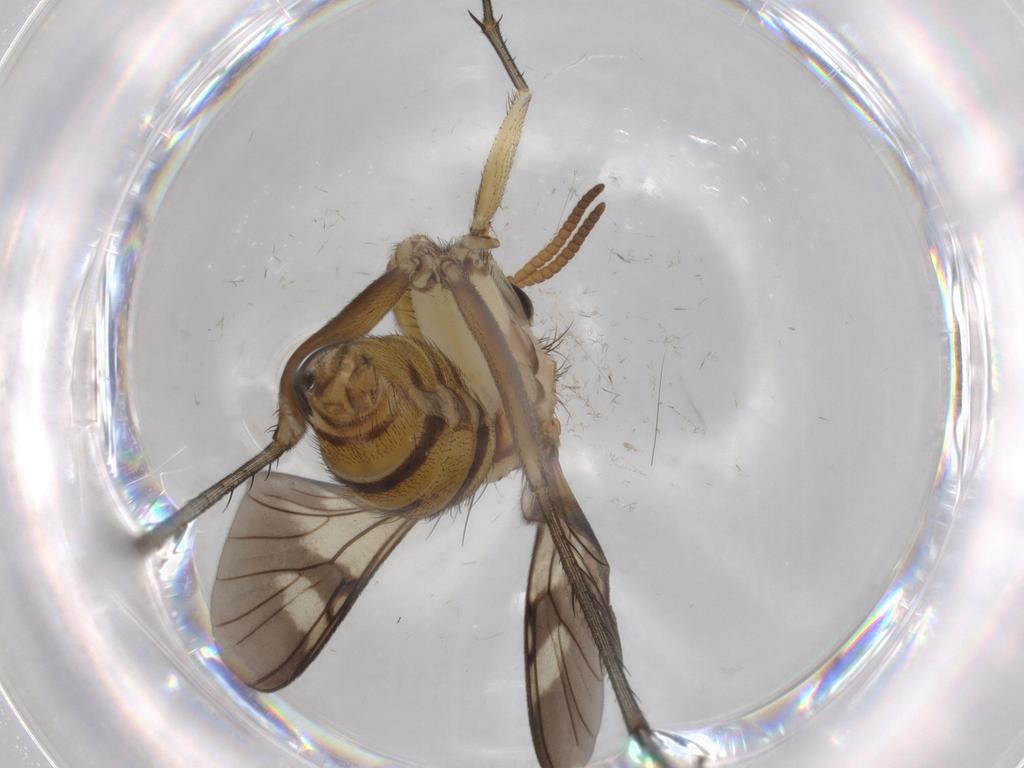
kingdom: Animalia
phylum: Arthropoda
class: Insecta
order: Diptera
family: Mycetophilidae
